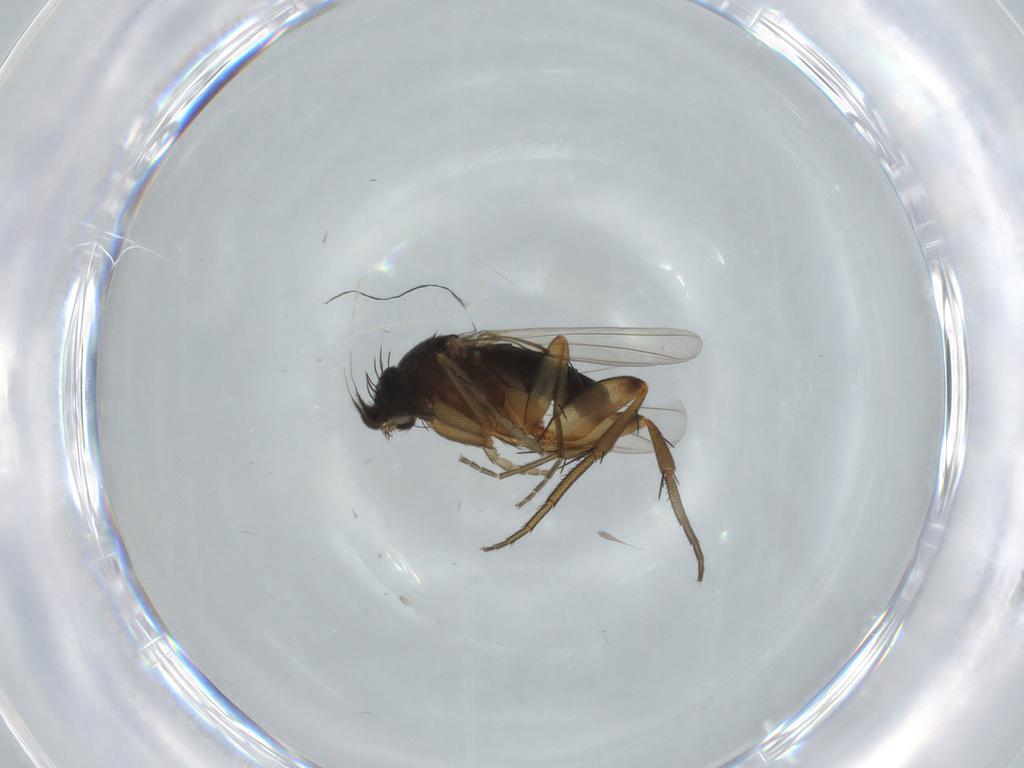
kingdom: Animalia
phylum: Arthropoda
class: Insecta
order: Diptera
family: Phoridae
